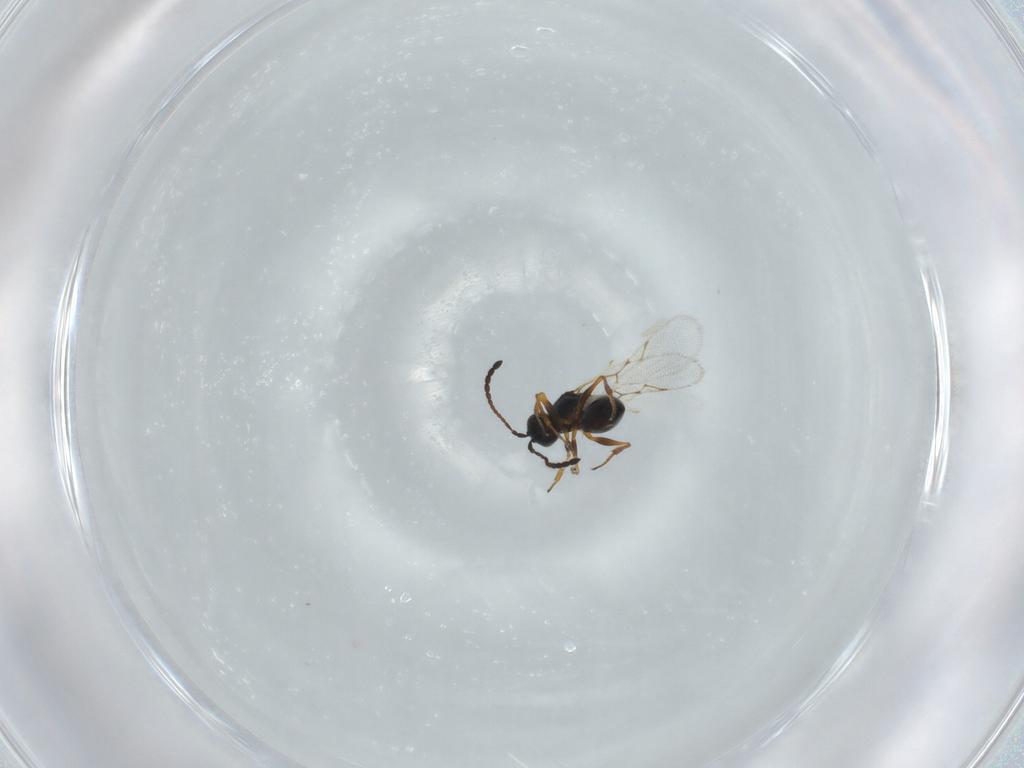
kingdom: Animalia
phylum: Arthropoda
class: Insecta
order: Hymenoptera
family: Figitidae
